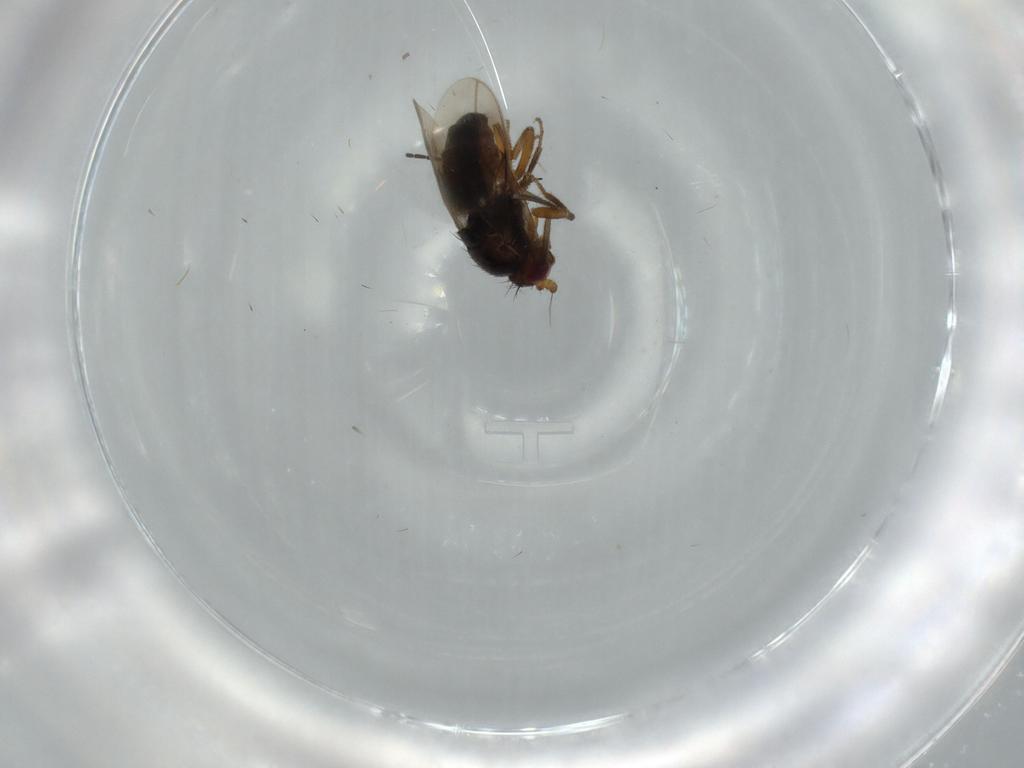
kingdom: Animalia
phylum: Arthropoda
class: Insecta
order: Diptera
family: Sphaeroceridae
